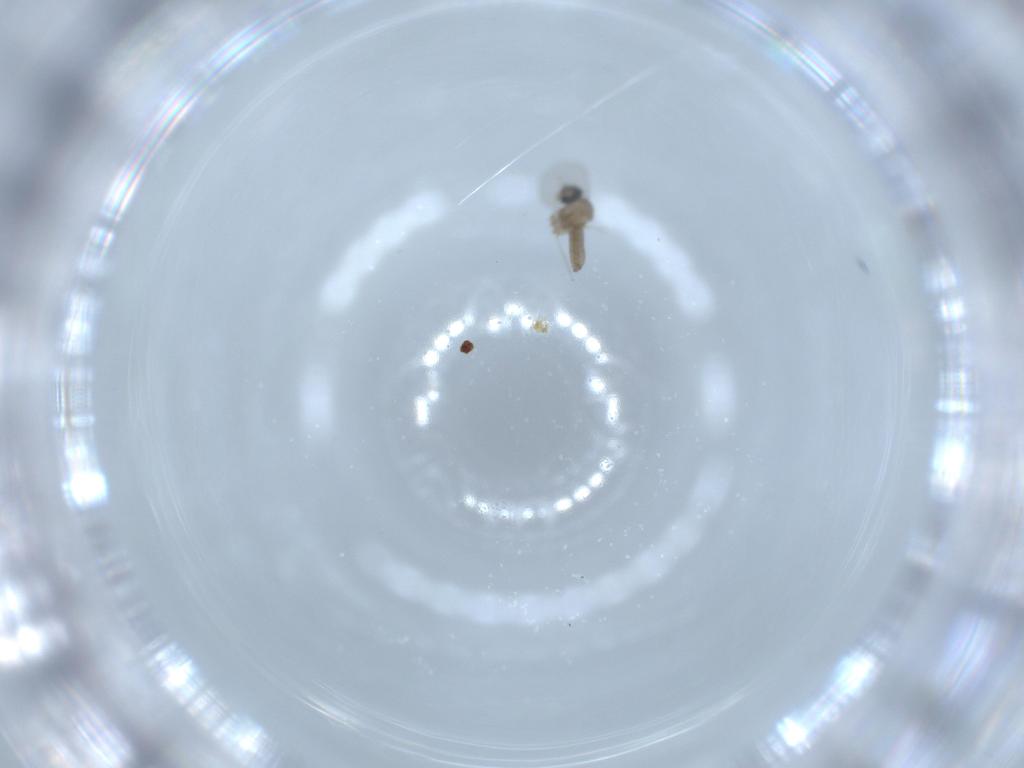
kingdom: Animalia
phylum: Arthropoda
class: Insecta
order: Diptera
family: Cecidomyiidae
